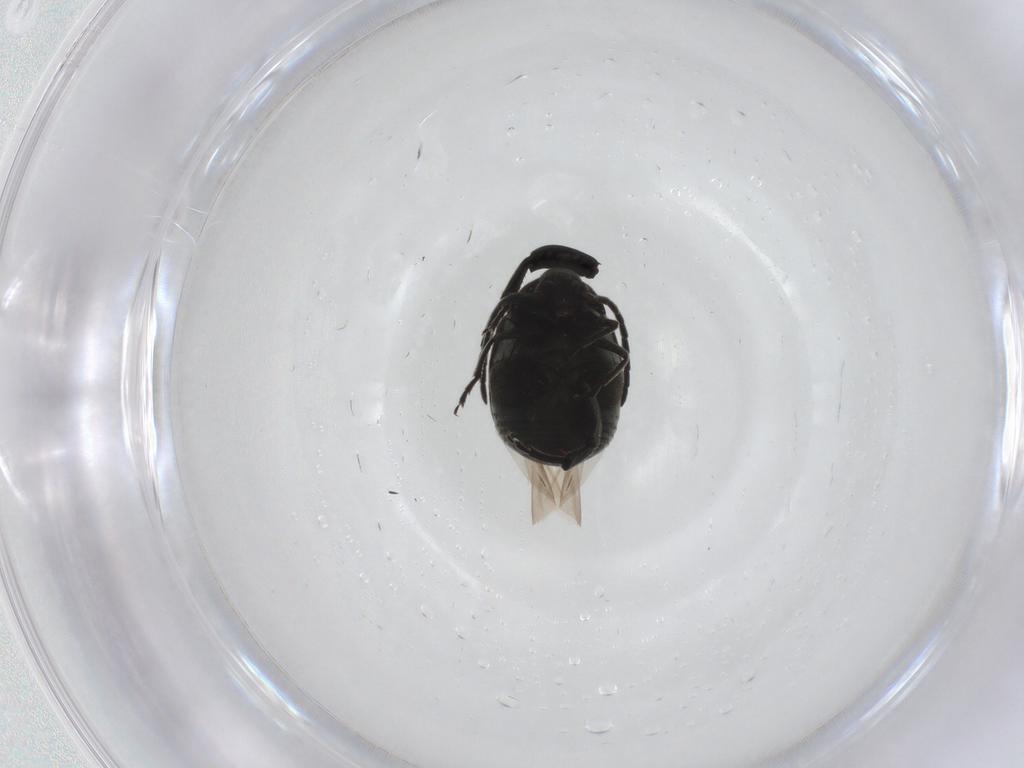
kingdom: Animalia
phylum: Arthropoda
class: Insecta
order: Coleoptera
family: Chrysomelidae
